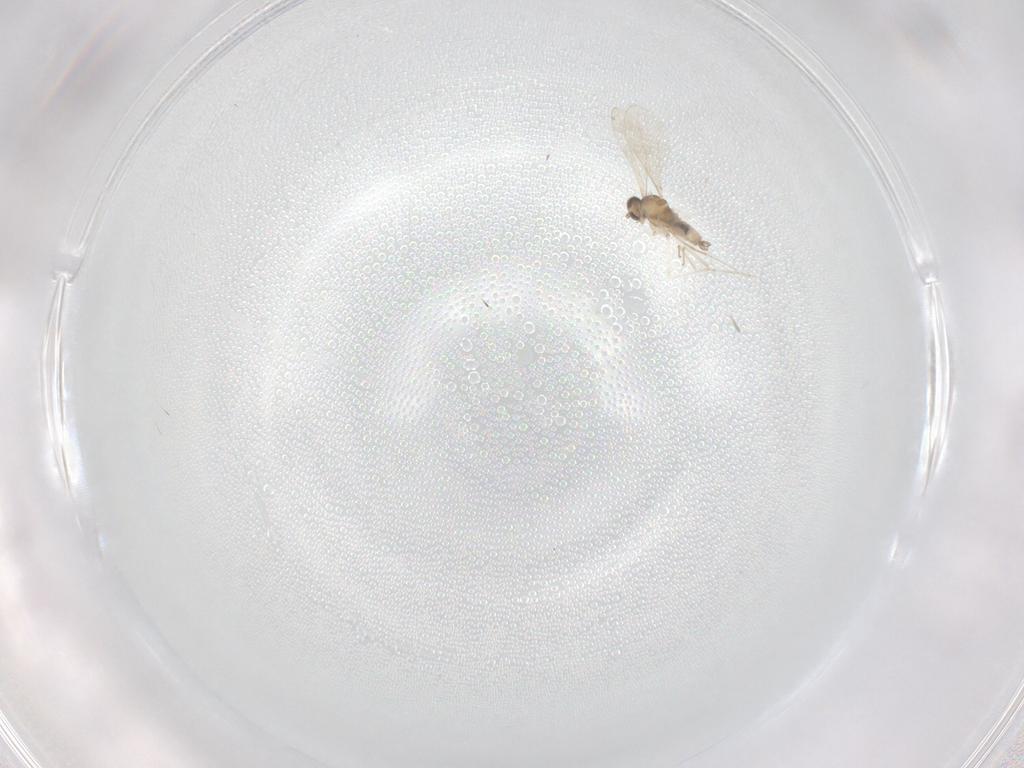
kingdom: Animalia
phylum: Arthropoda
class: Insecta
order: Diptera
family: Cecidomyiidae
